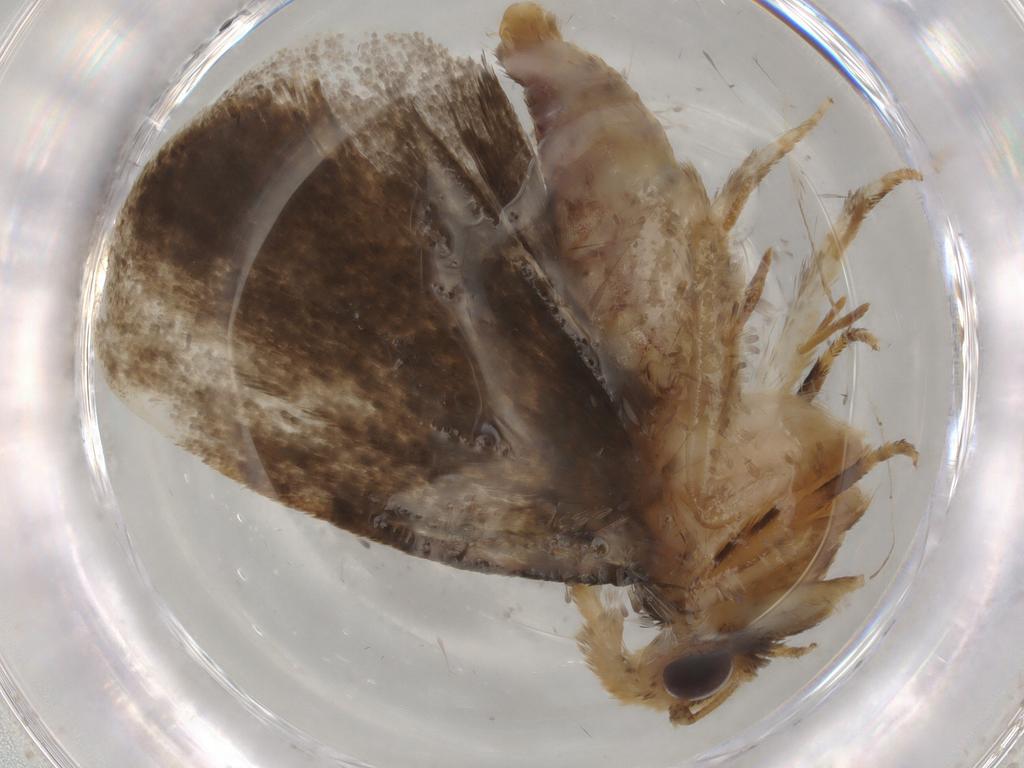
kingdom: Animalia
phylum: Arthropoda
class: Insecta
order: Lepidoptera
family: Tineidae
